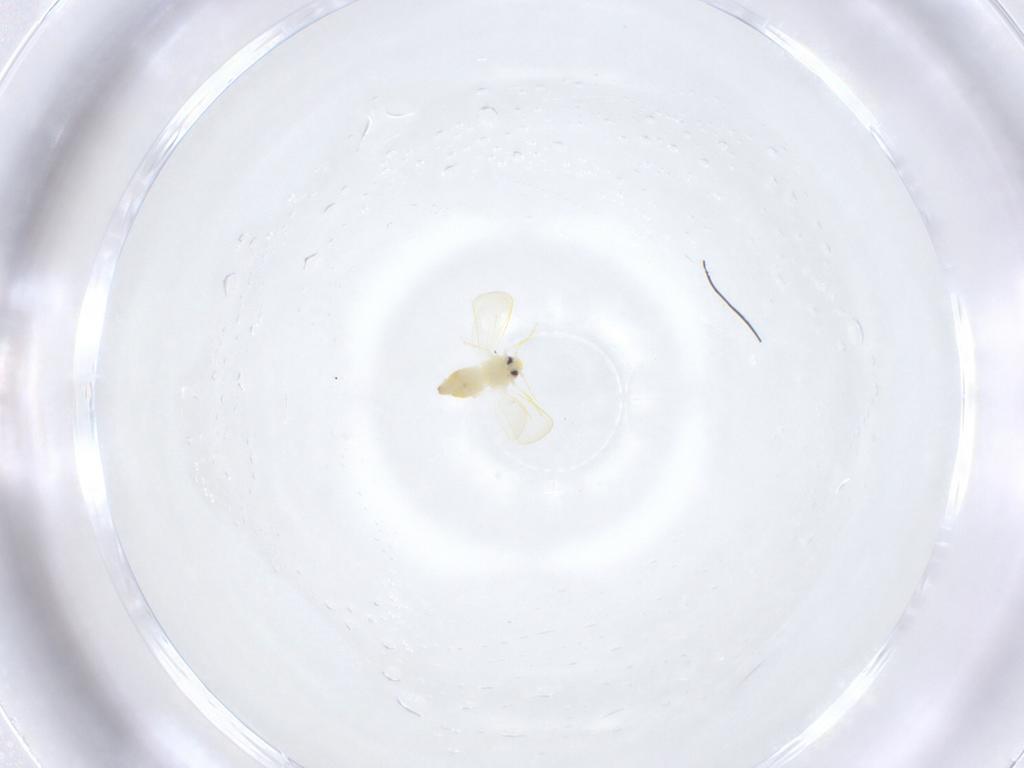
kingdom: Animalia
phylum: Arthropoda
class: Insecta
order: Hemiptera
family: Aleyrodidae
